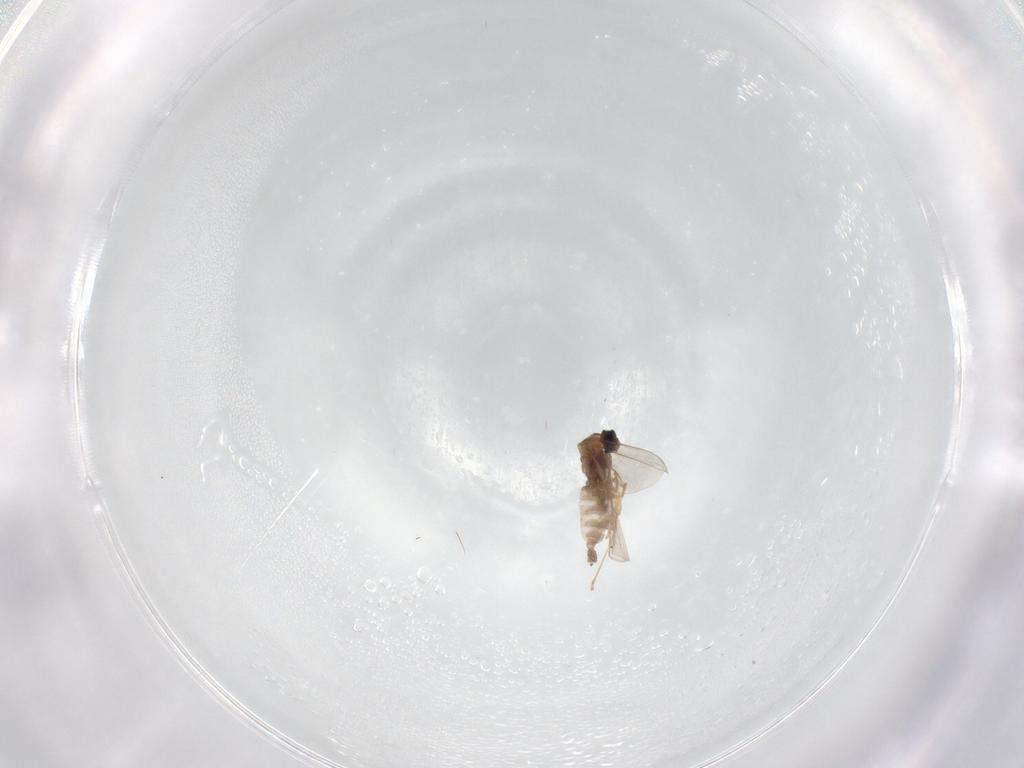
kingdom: Animalia
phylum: Arthropoda
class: Insecta
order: Diptera
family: Cecidomyiidae
